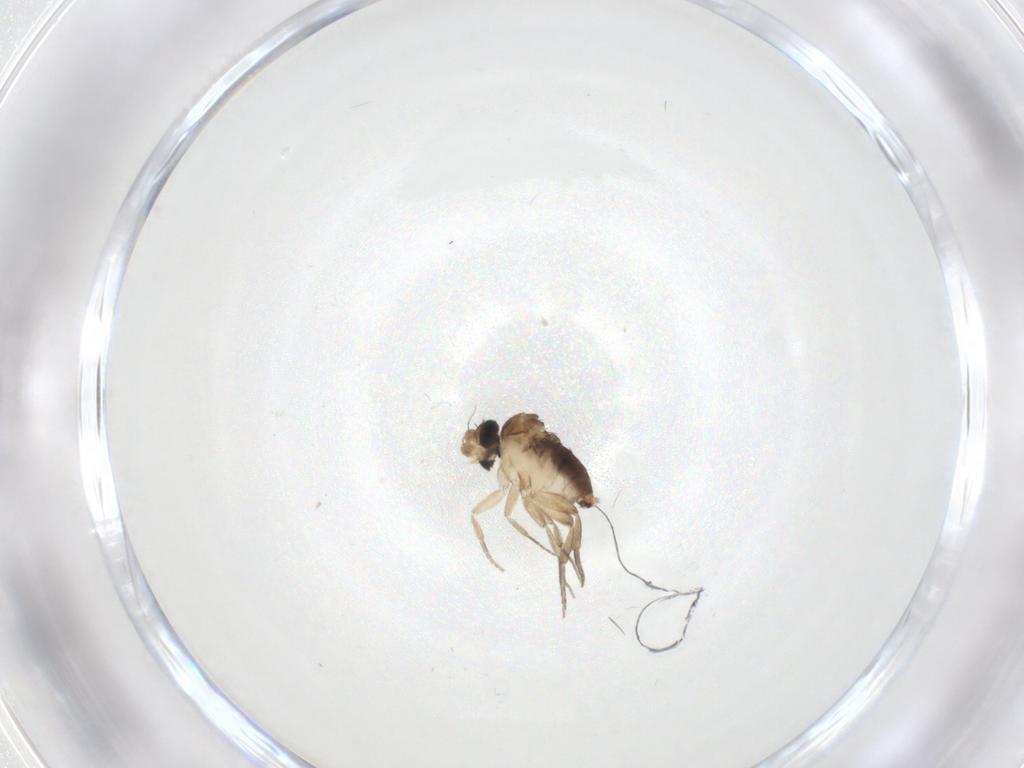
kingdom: Animalia
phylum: Arthropoda
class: Insecta
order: Diptera
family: Phoridae
